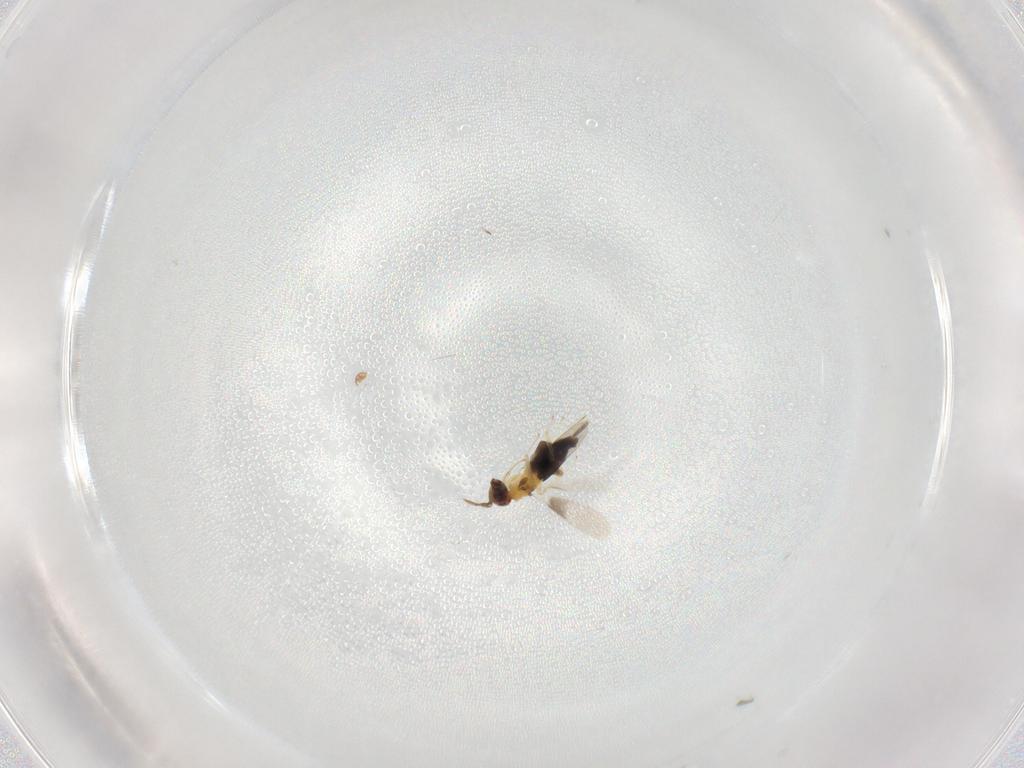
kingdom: Animalia
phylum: Arthropoda
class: Insecta
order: Hymenoptera
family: Aphelinidae
